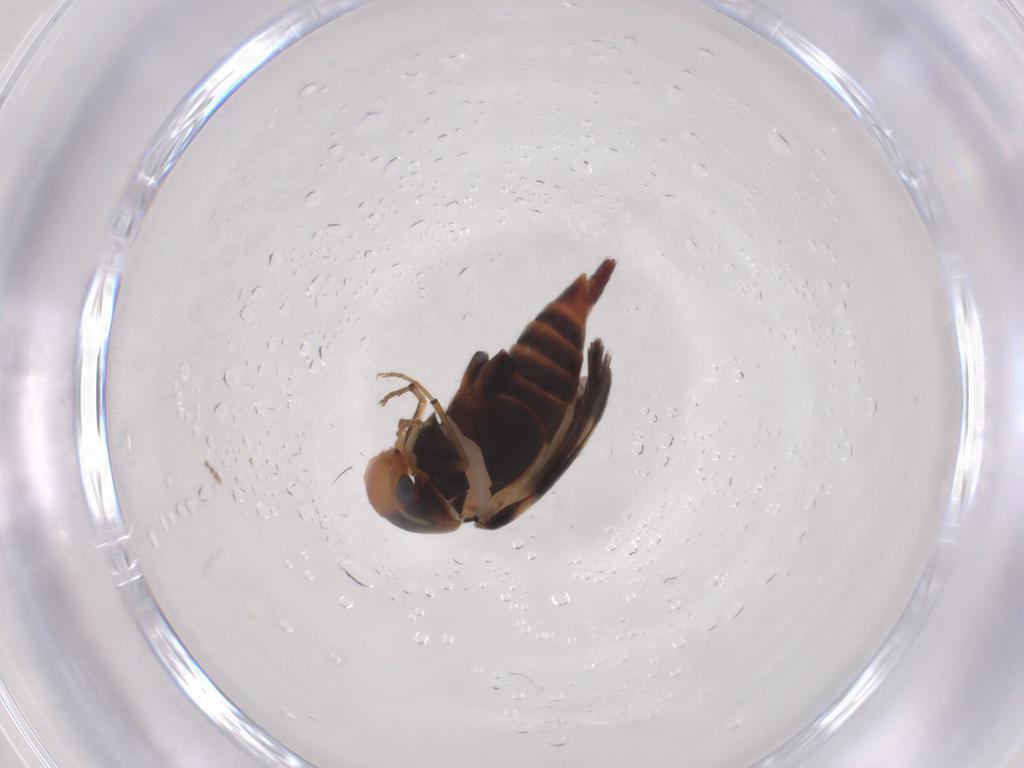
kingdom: Animalia
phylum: Arthropoda
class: Insecta
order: Coleoptera
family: Mordellidae
